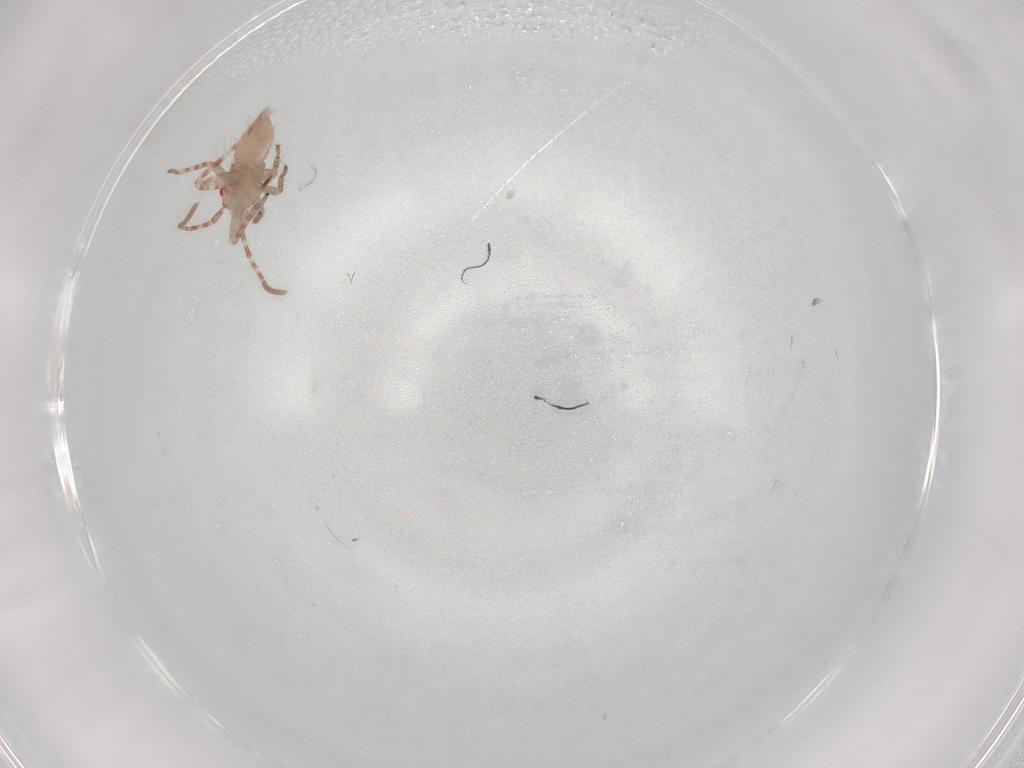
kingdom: Animalia
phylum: Arthropoda
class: Insecta
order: Hemiptera
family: Miridae
